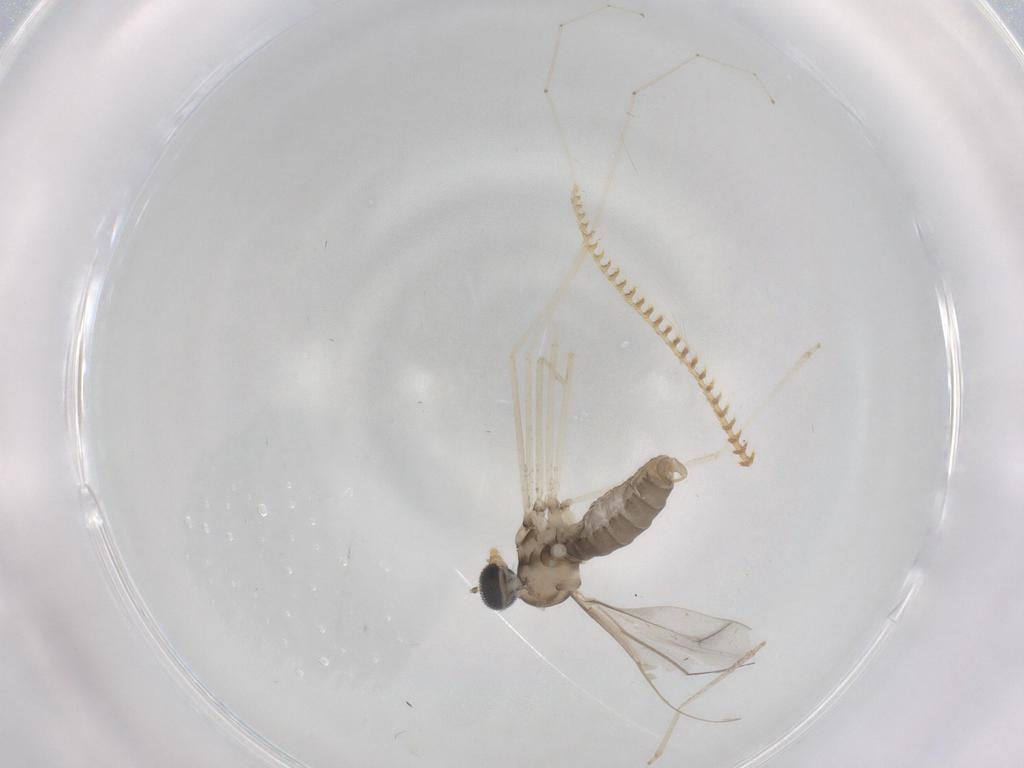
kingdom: Animalia
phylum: Arthropoda
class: Insecta
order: Diptera
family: Cecidomyiidae
